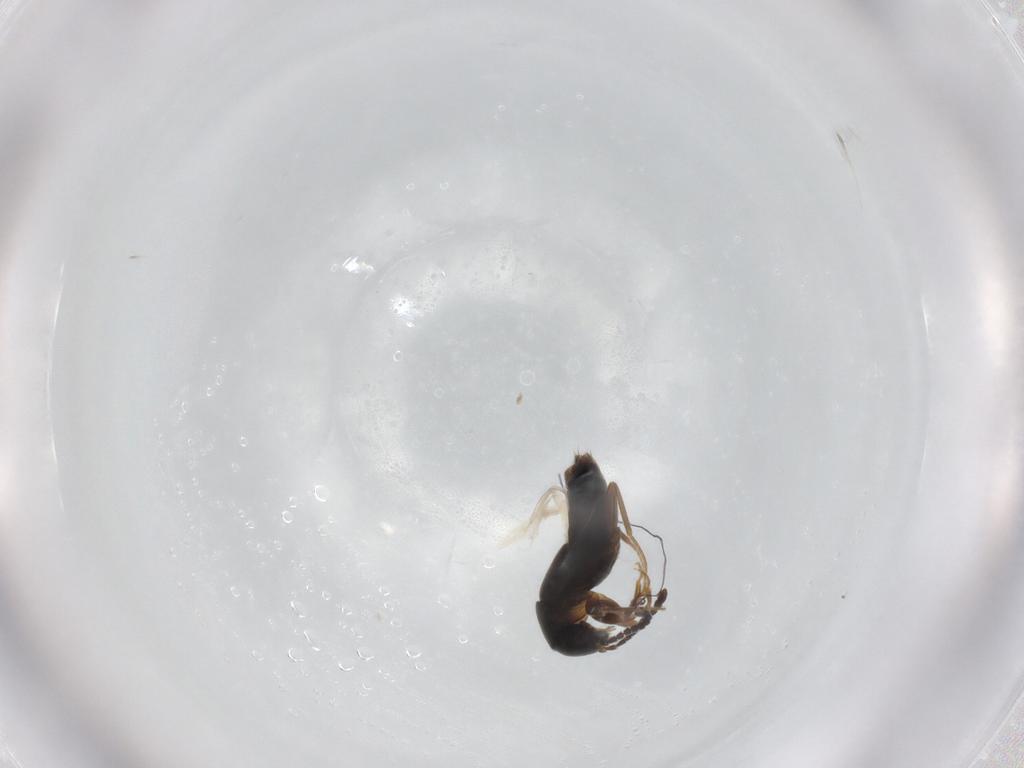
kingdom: Animalia
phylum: Arthropoda
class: Insecta
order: Coleoptera
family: Staphylinidae
